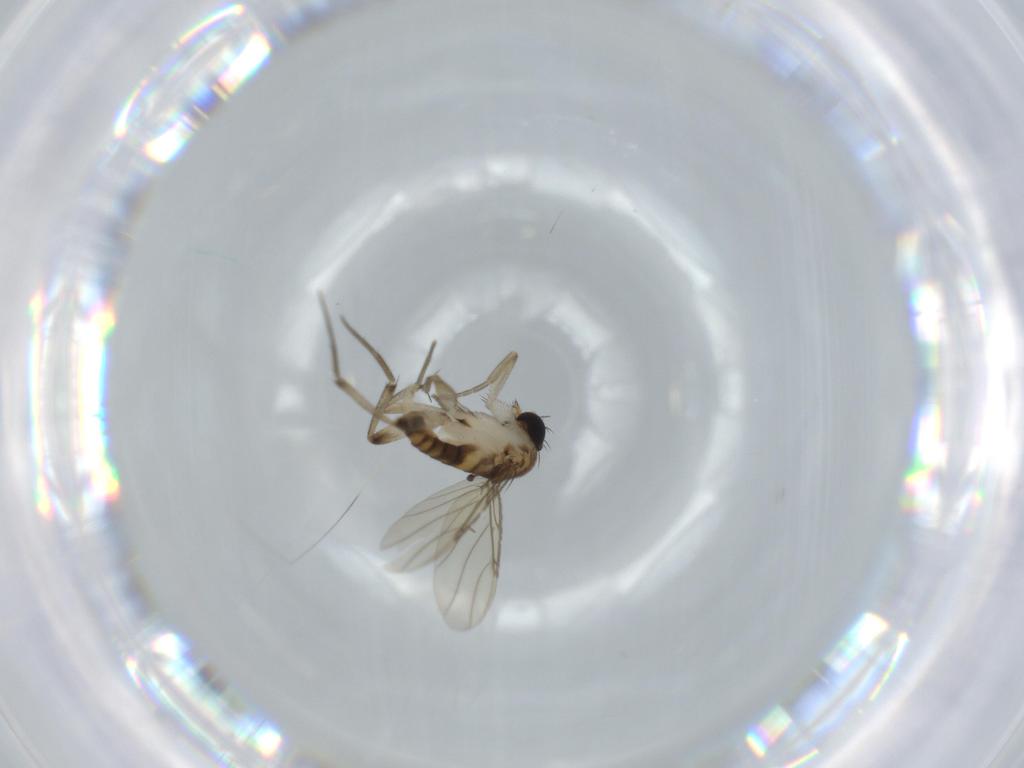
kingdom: Animalia
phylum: Arthropoda
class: Insecta
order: Diptera
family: Phoridae
